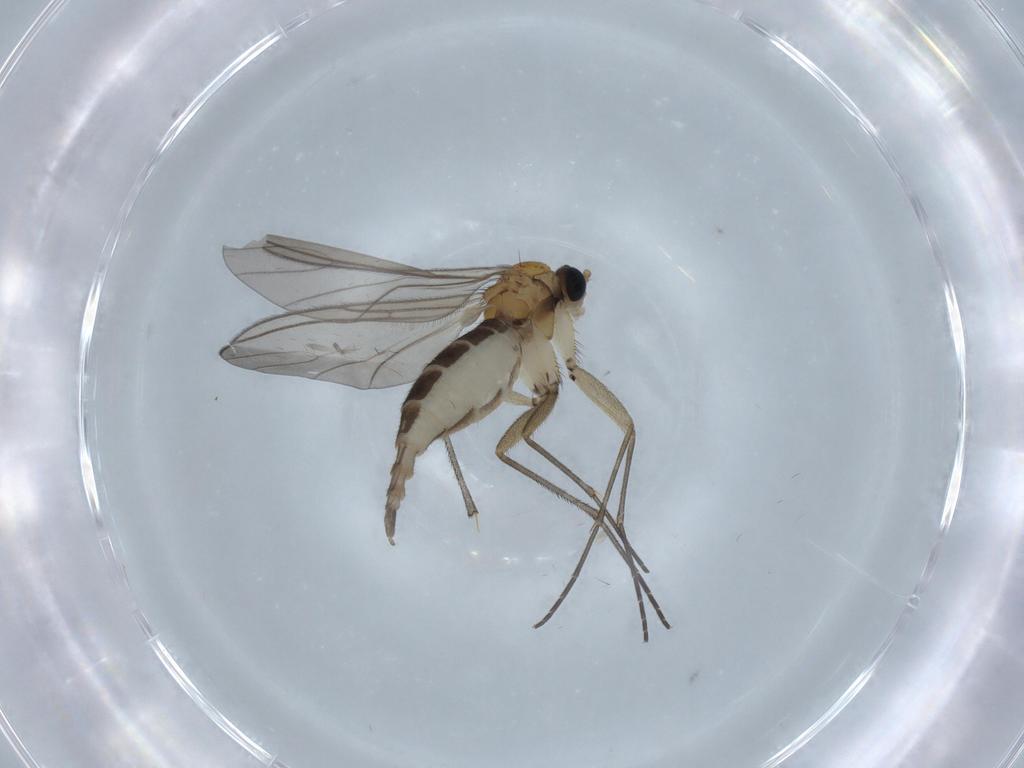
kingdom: Animalia
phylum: Arthropoda
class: Insecta
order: Diptera
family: Sciaridae
